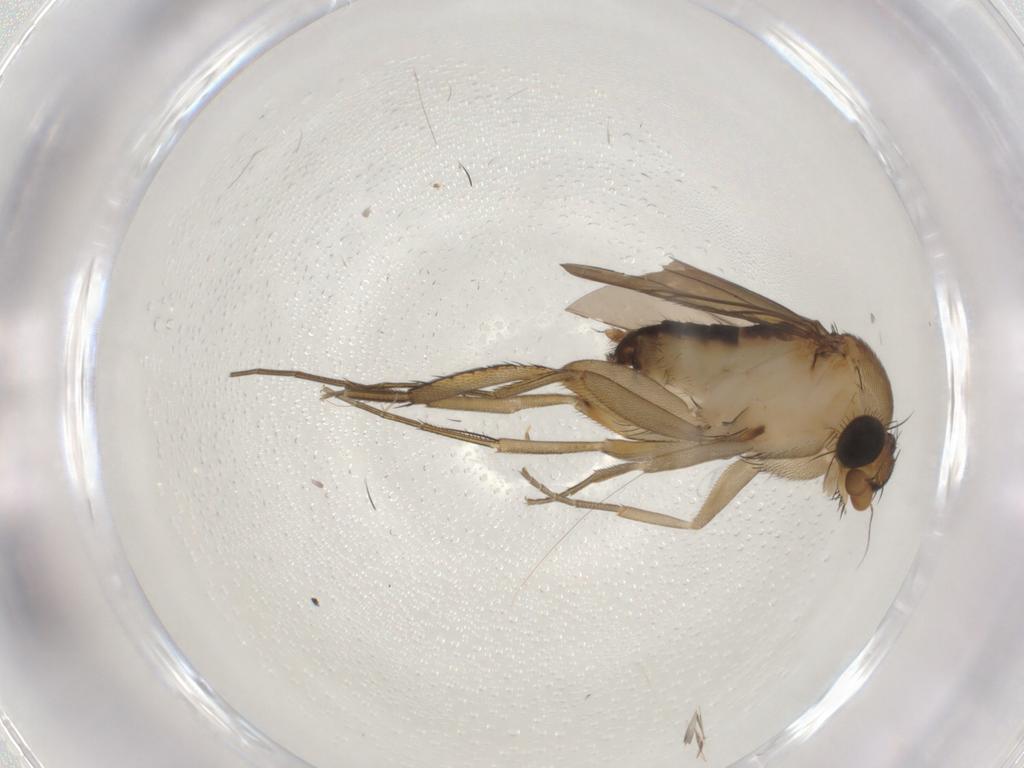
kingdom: Animalia
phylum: Arthropoda
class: Insecta
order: Diptera
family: Phoridae
